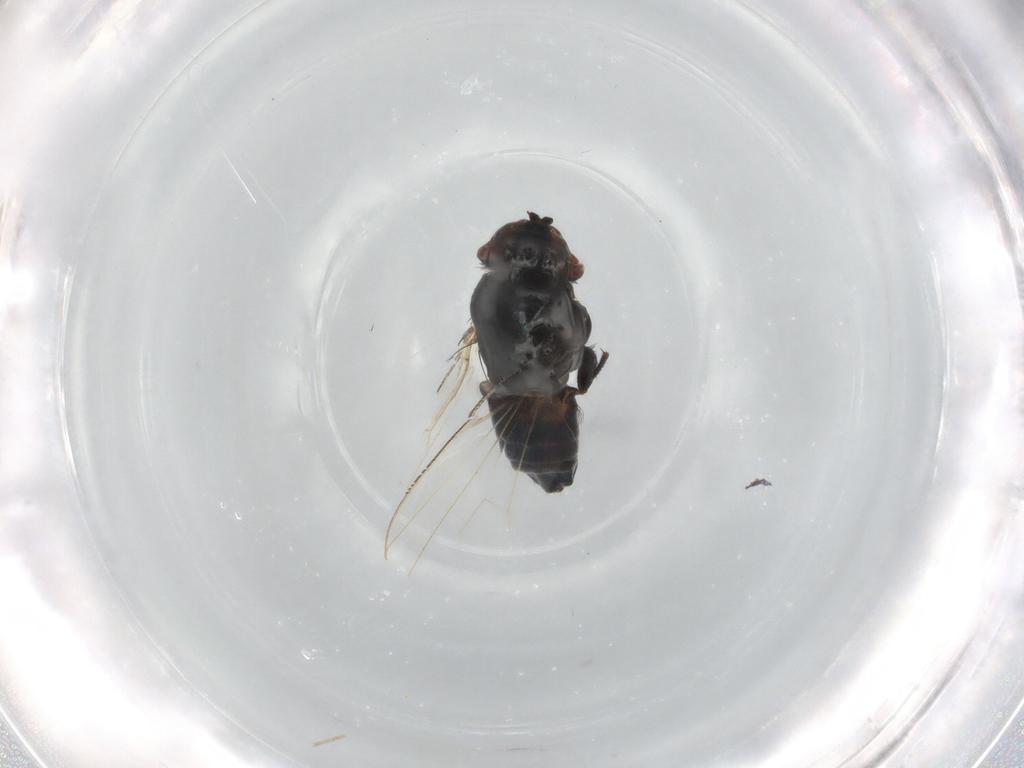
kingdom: Animalia
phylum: Arthropoda
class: Insecta
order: Diptera
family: Milichiidae
